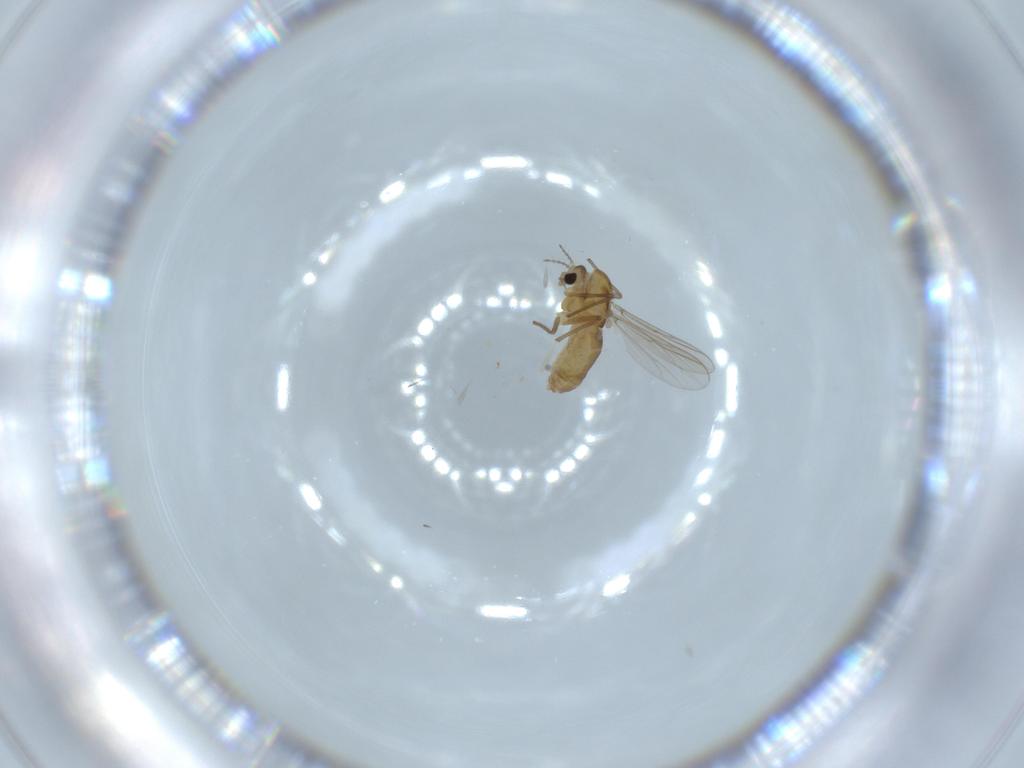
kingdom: Animalia
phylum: Arthropoda
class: Insecta
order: Diptera
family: Chironomidae
